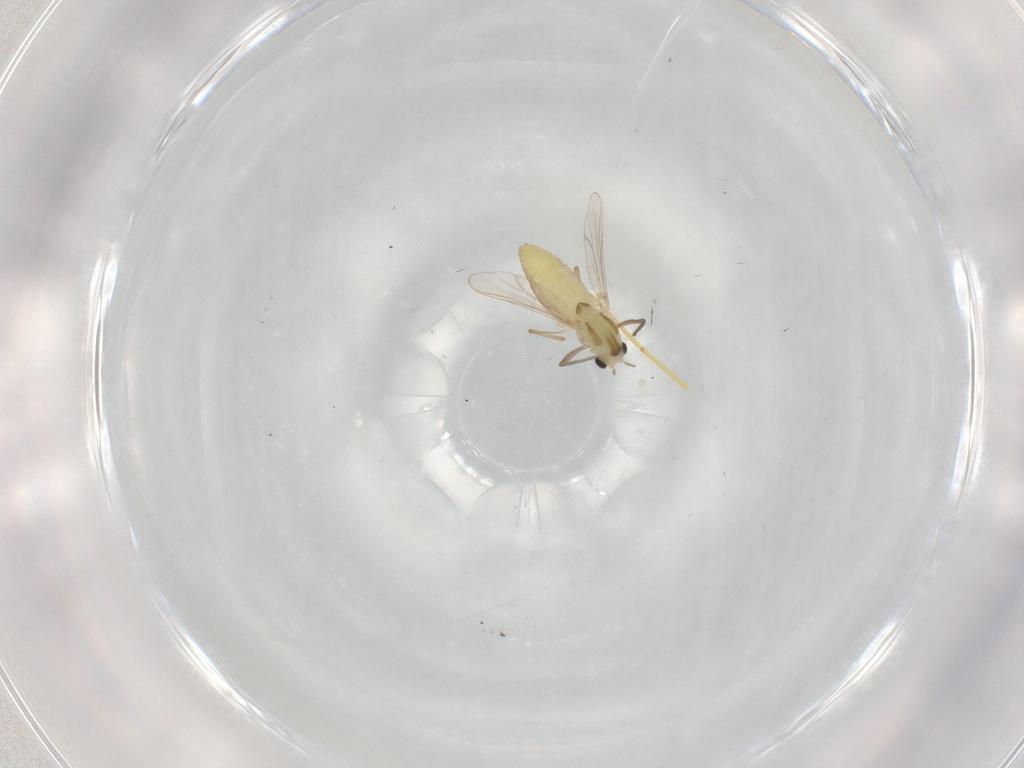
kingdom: Animalia
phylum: Arthropoda
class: Insecta
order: Diptera
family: Chironomidae
